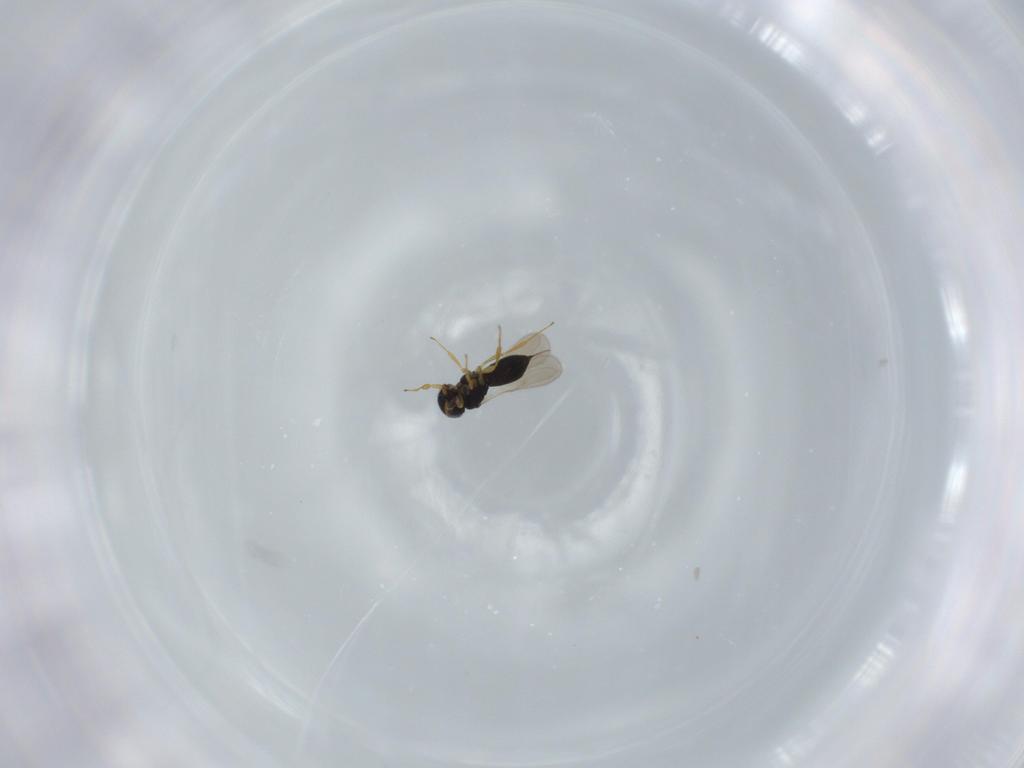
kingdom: Animalia
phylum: Arthropoda
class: Insecta
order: Hymenoptera
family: Scelionidae
